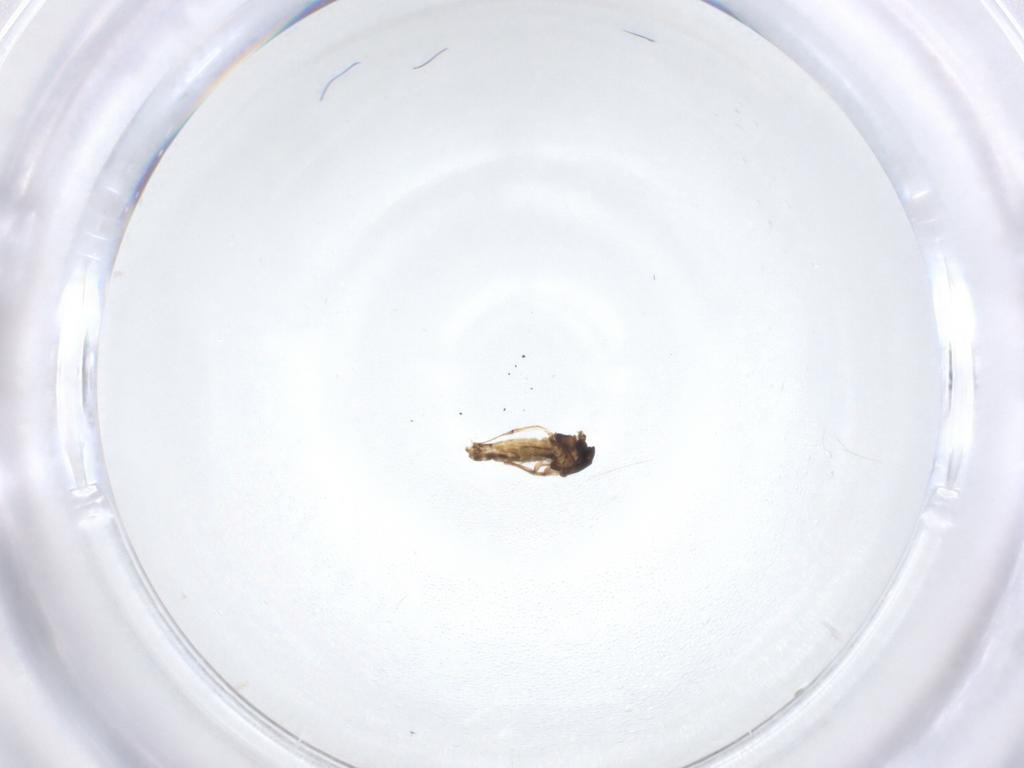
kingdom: Animalia
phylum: Arthropoda
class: Insecta
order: Diptera
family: Chironomidae
